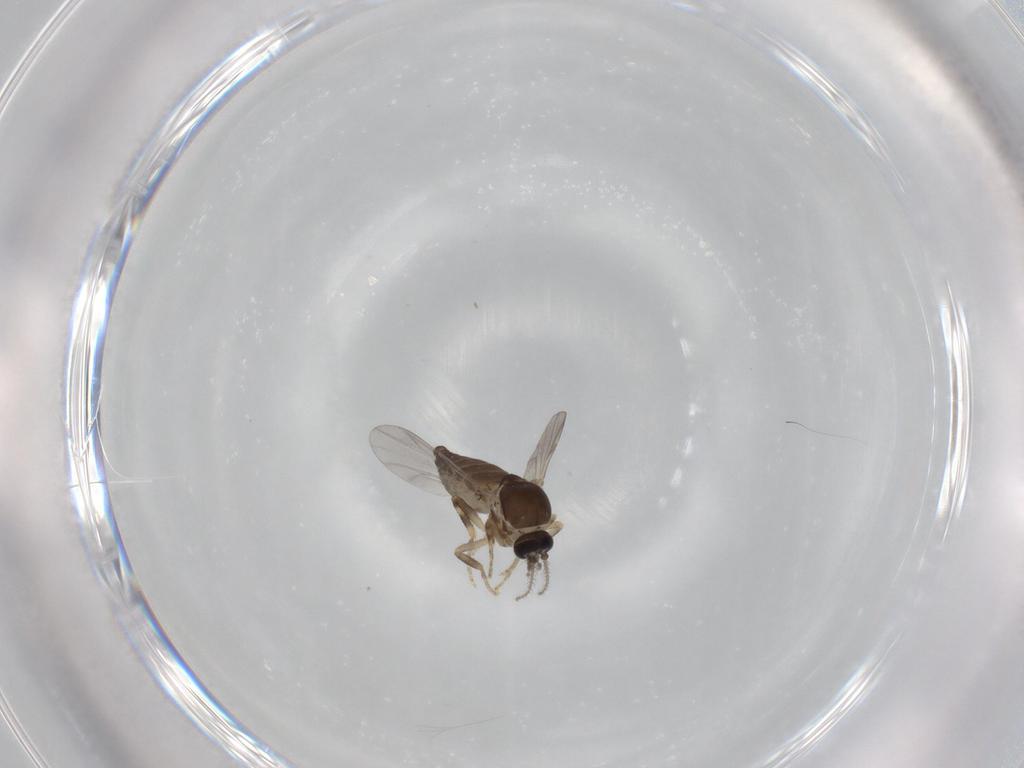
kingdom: Animalia
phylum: Arthropoda
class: Insecta
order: Diptera
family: Ceratopogonidae
